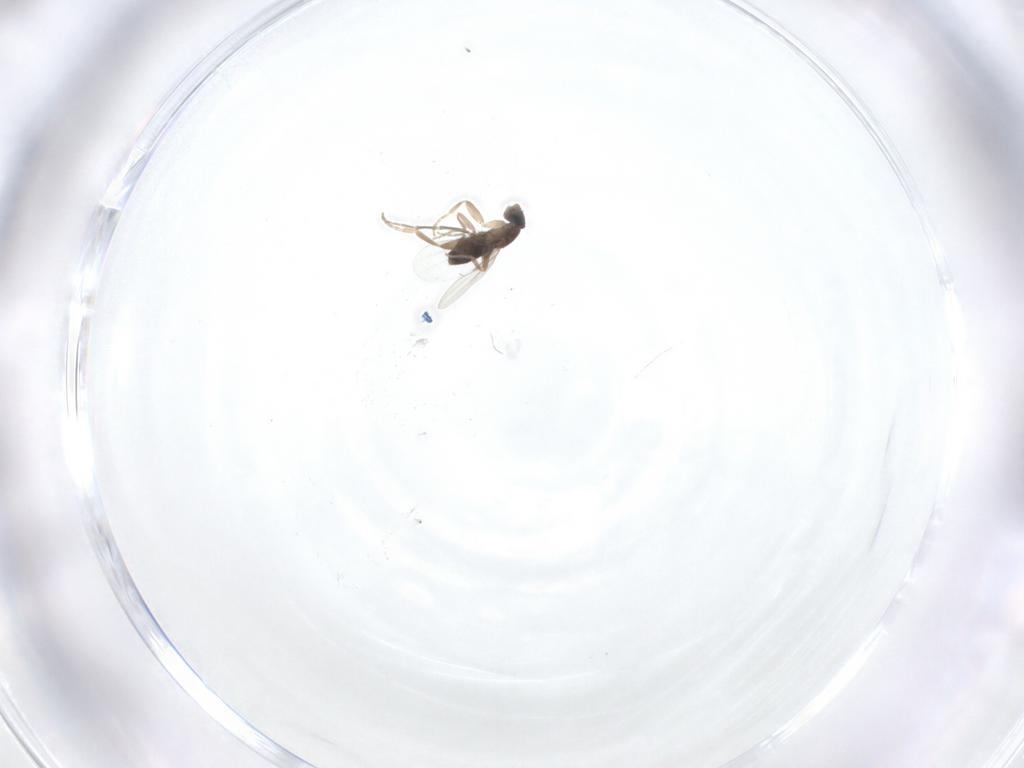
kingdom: Animalia
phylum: Arthropoda
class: Insecta
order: Diptera
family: Phoridae
